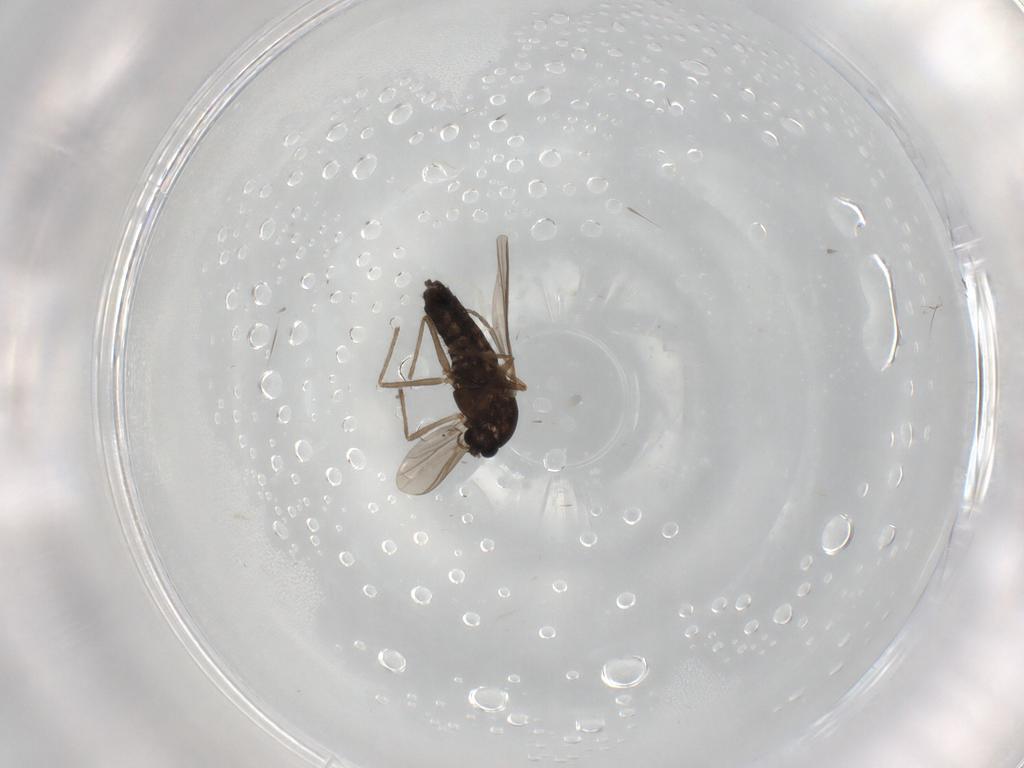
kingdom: Animalia
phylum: Arthropoda
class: Insecta
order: Diptera
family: Chironomidae
